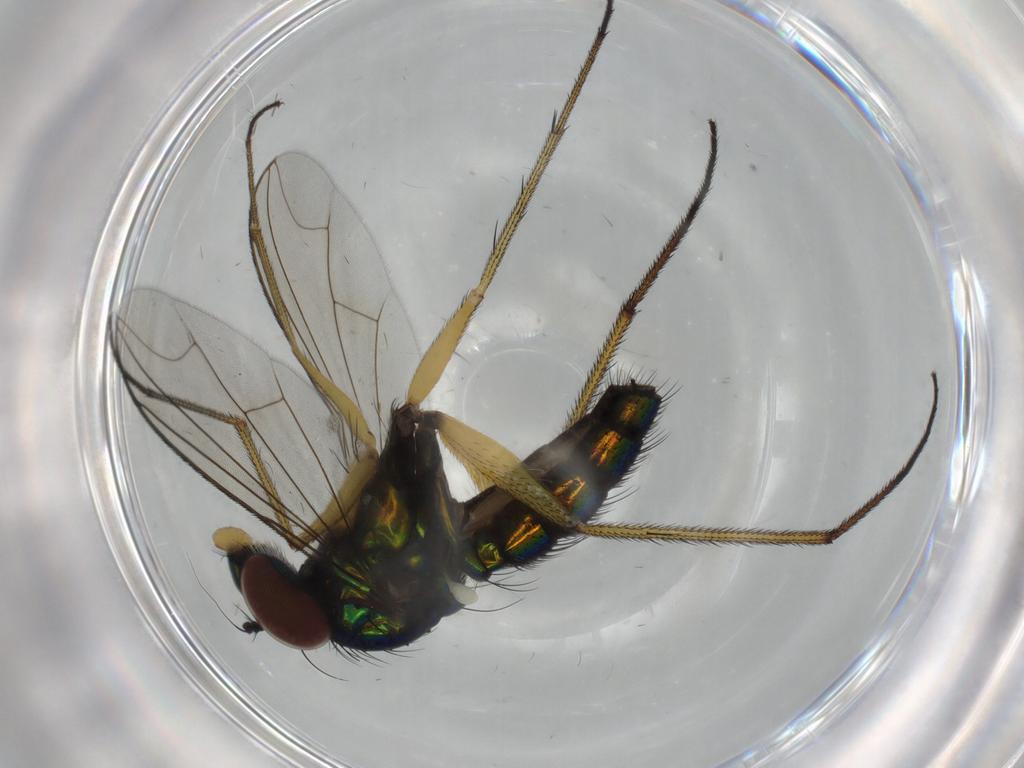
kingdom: Animalia
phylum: Arthropoda
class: Insecta
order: Diptera
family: Dolichopodidae
